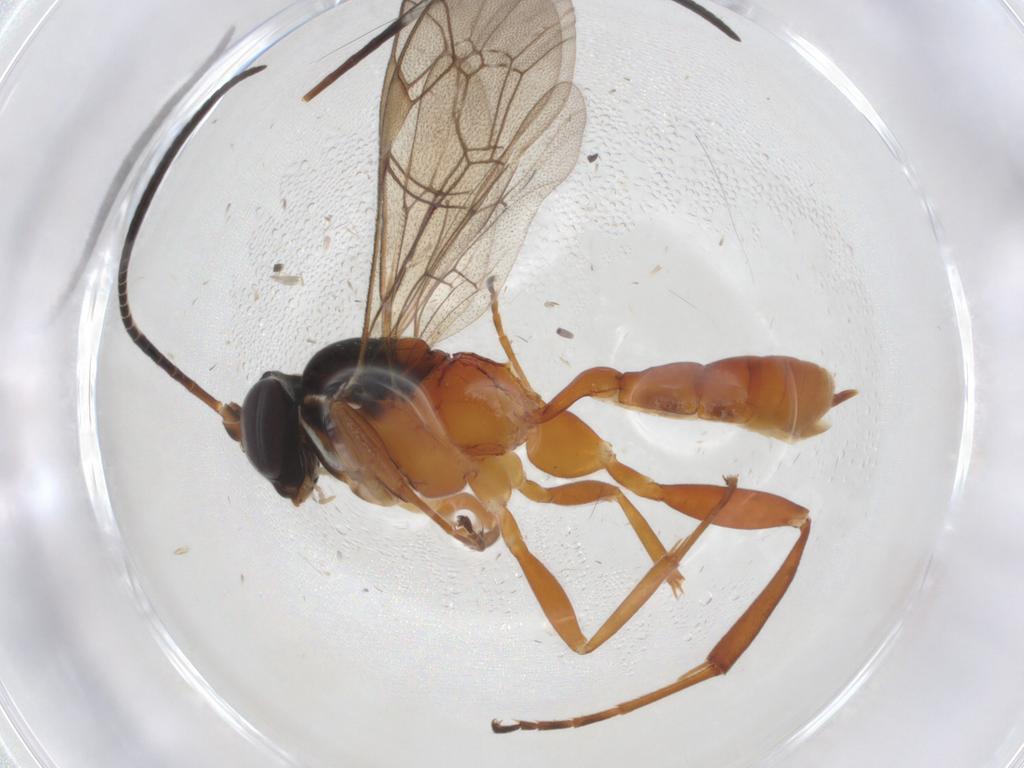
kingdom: Animalia
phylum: Arthropoda
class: Insecta
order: Hymenoptera
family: Ichneumonidae
